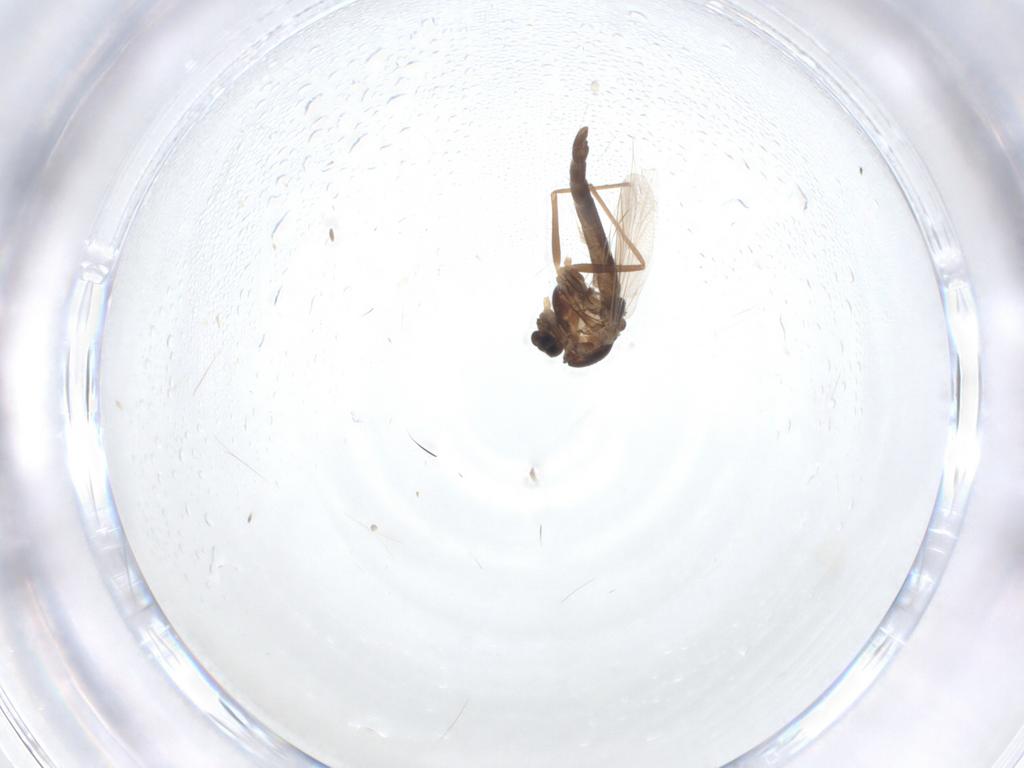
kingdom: Animalia
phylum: Arthropoda
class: Insecta
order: Diptera
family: Chironomidae
